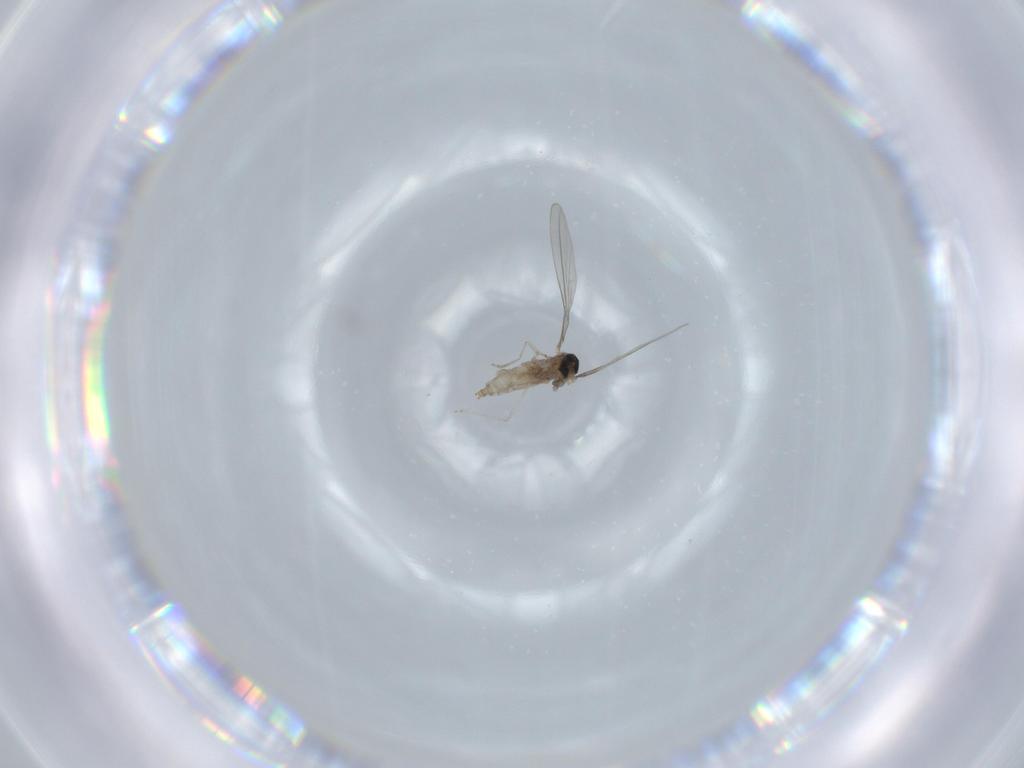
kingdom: Animalia
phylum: Arthropoda
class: Insecta
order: Diptera
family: Cecidomyiidae
